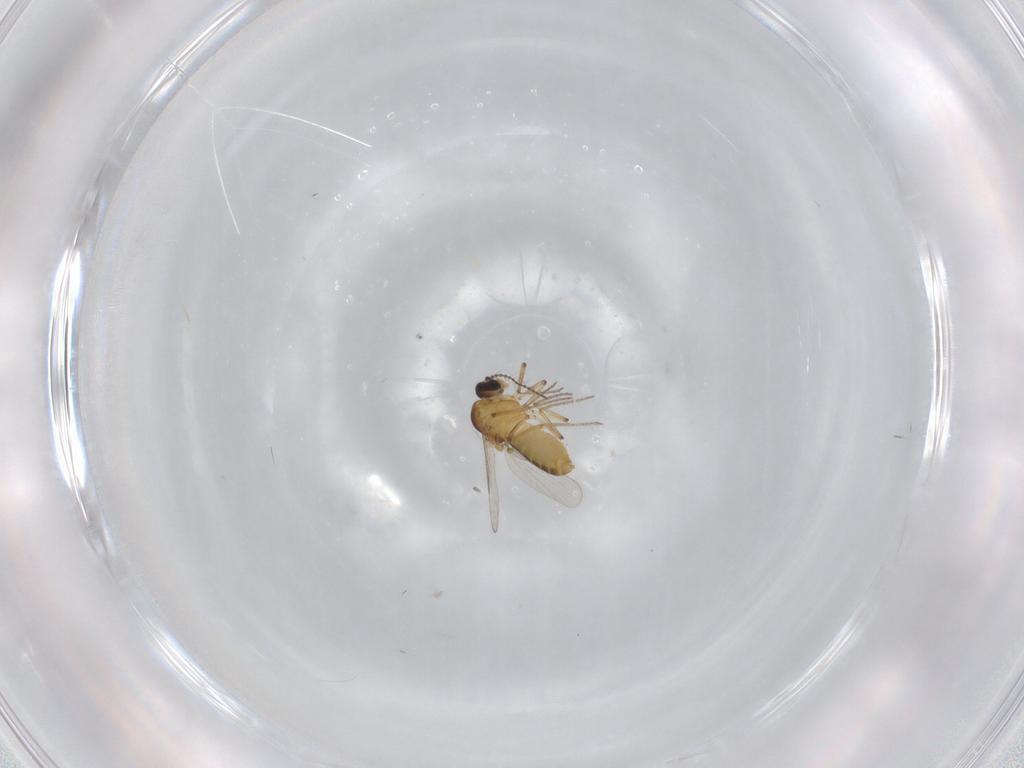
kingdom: Animalia
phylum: Arthropoda
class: Insecta
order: Diptera
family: Ceratopogonidae
